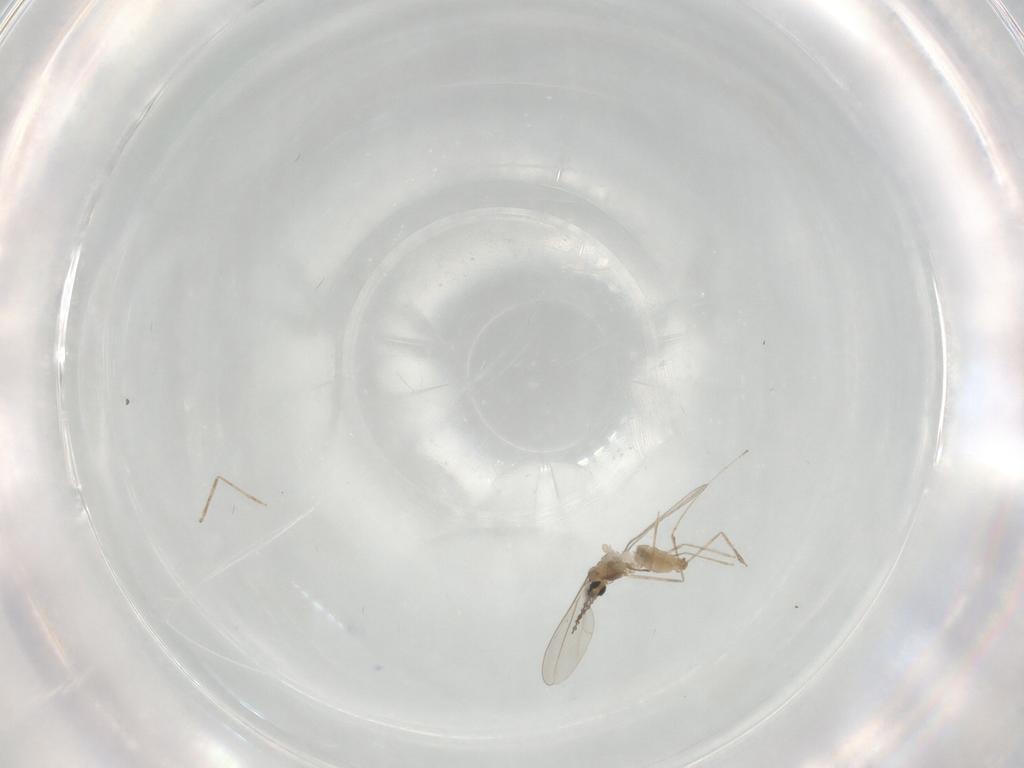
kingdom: Animalia
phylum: Arthropoda
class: Insecta
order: Diptera
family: Cecidomyiidae
